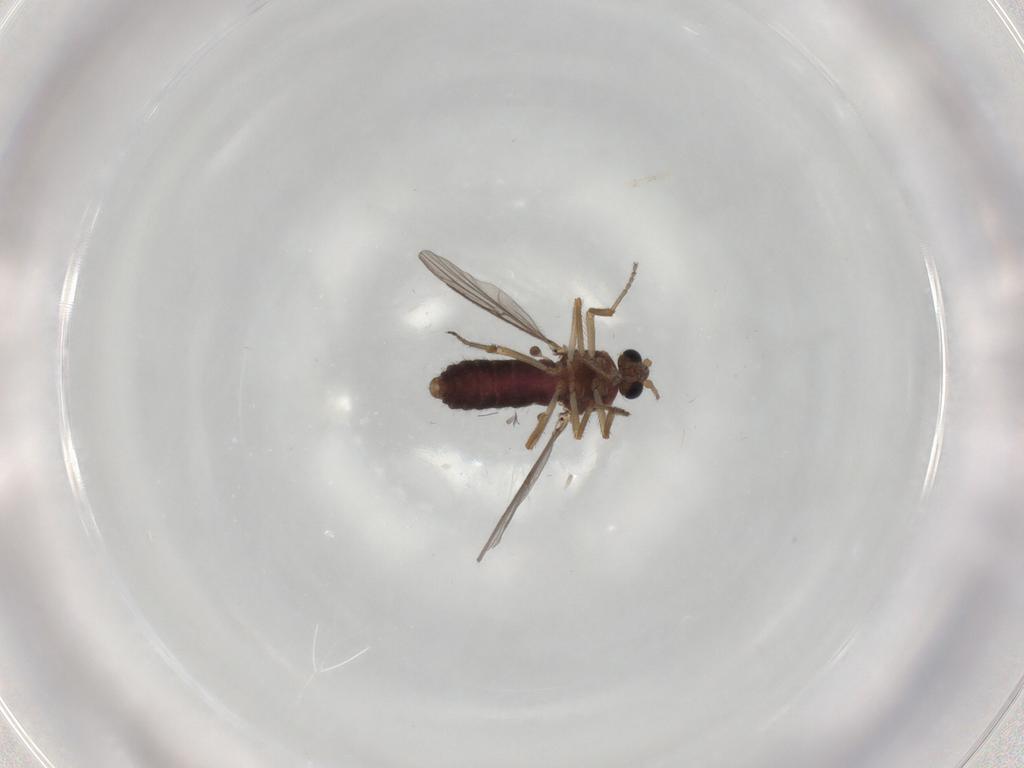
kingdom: Animalia
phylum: Arthropoda
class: Insecta
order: Diptera
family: Ceratopogonidae
